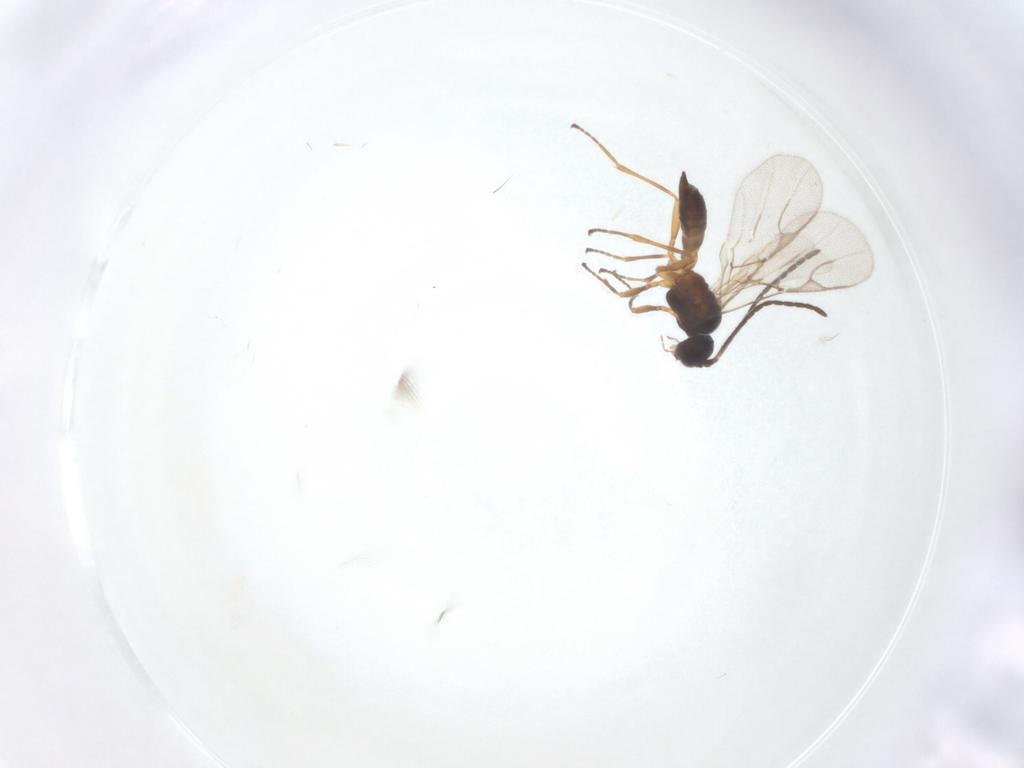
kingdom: Animalia
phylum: Arthropoda
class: Insecta
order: Hymenoptera
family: Braconidae
